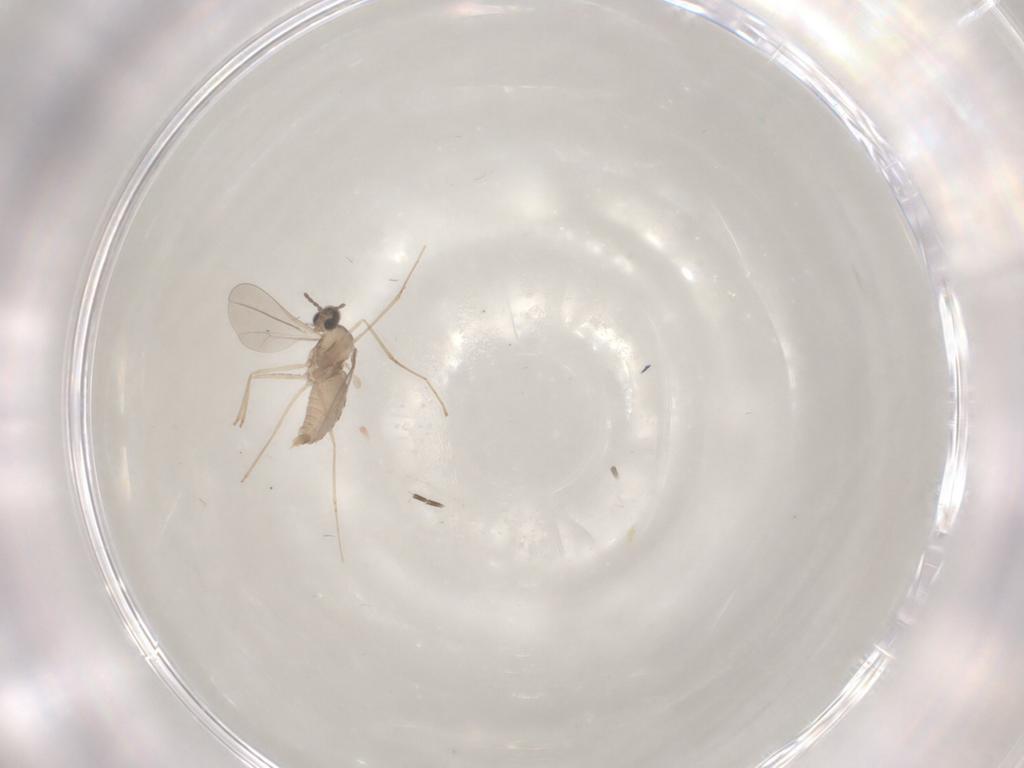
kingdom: Animalia
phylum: Arthropoda
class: Insecta
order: Diptera
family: Cecidomyiidae
